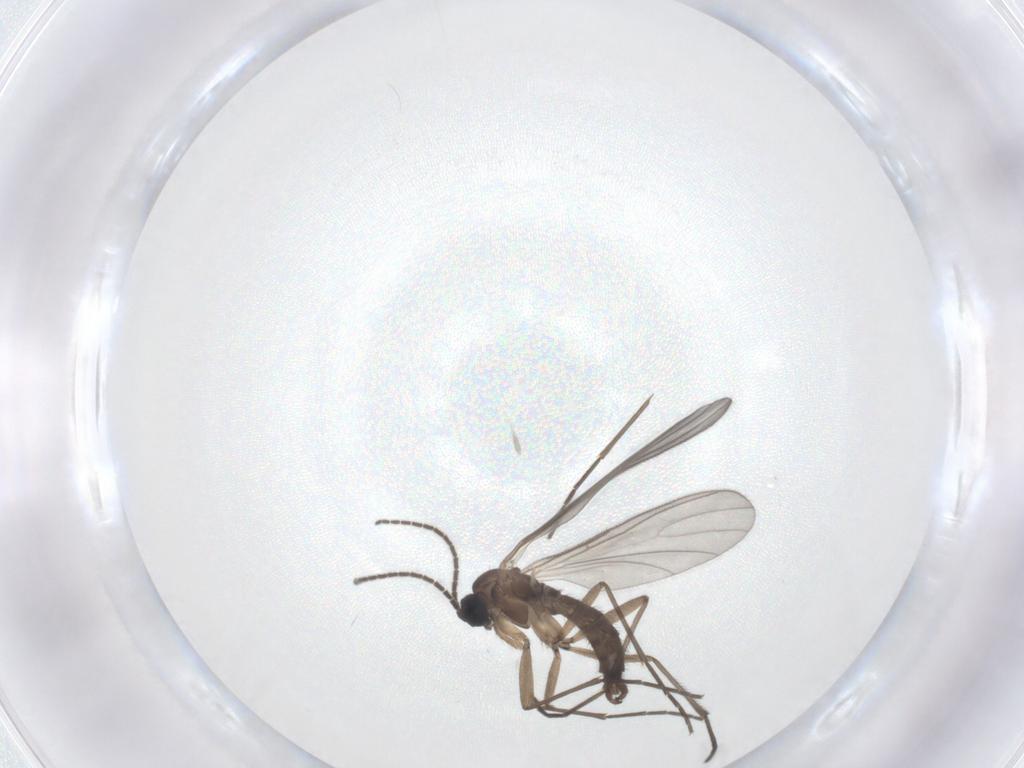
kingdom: Animalia
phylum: Arthropoda
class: Insecta
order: Diptera
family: Sciaridae
